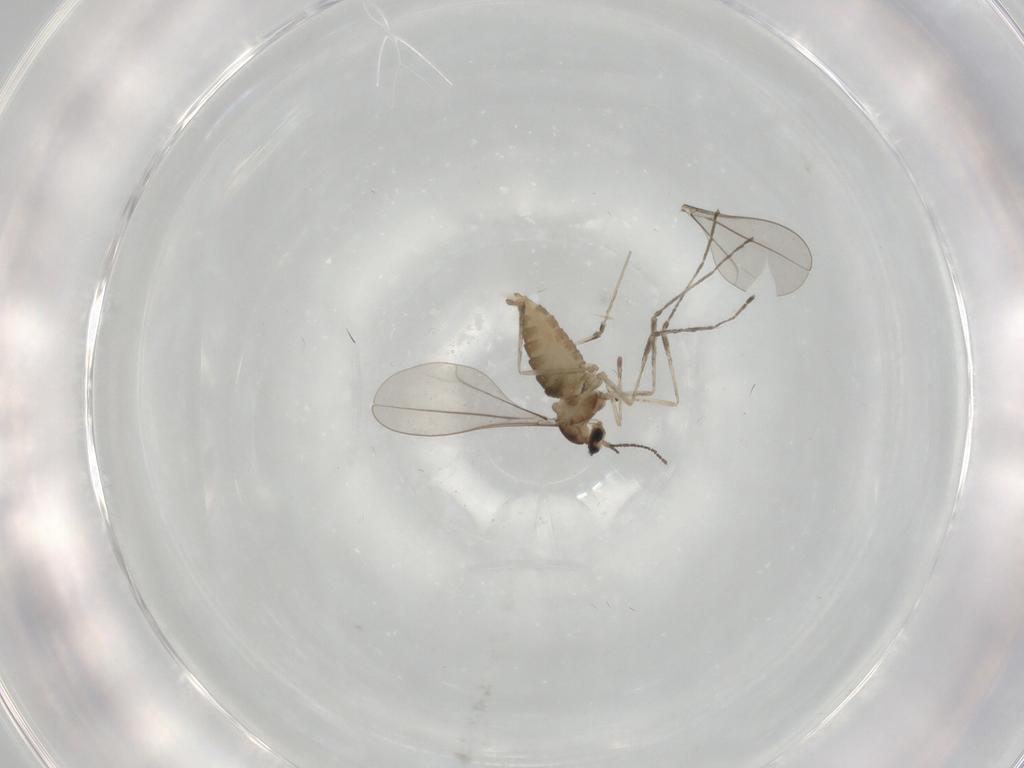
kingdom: Animalia
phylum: Arthropoda
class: Insecta
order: Diptera
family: Cecidomyiidae
